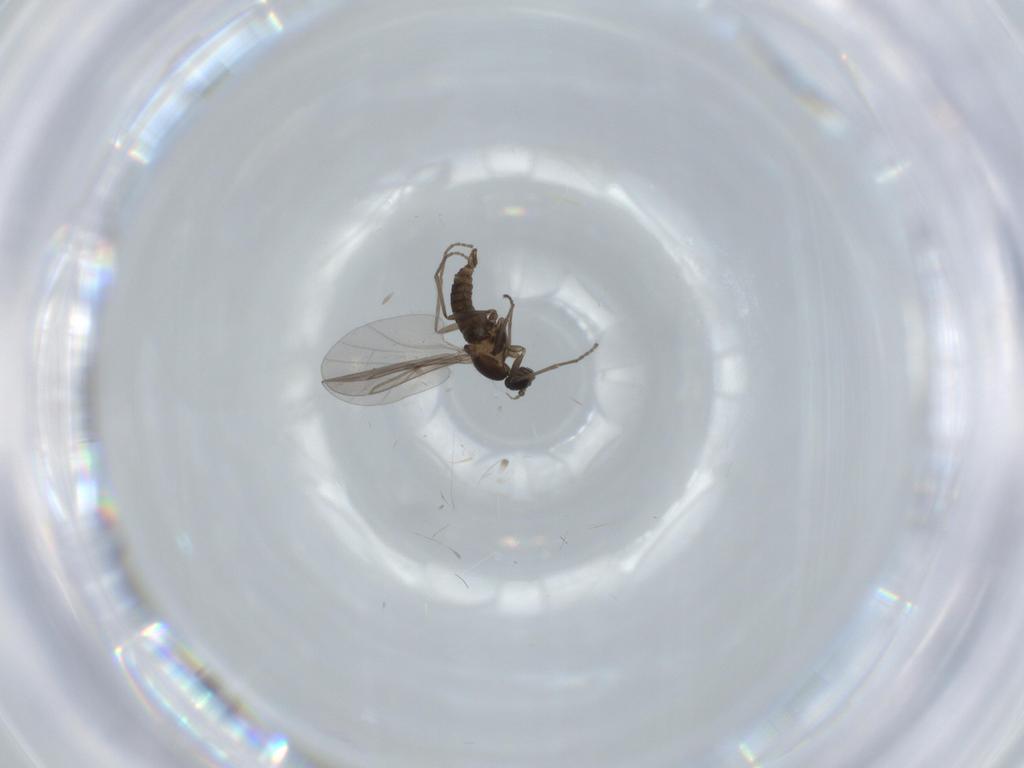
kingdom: Animalia
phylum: Arthropoda
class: Insecta
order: Diptera
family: Cecidomyiidae
